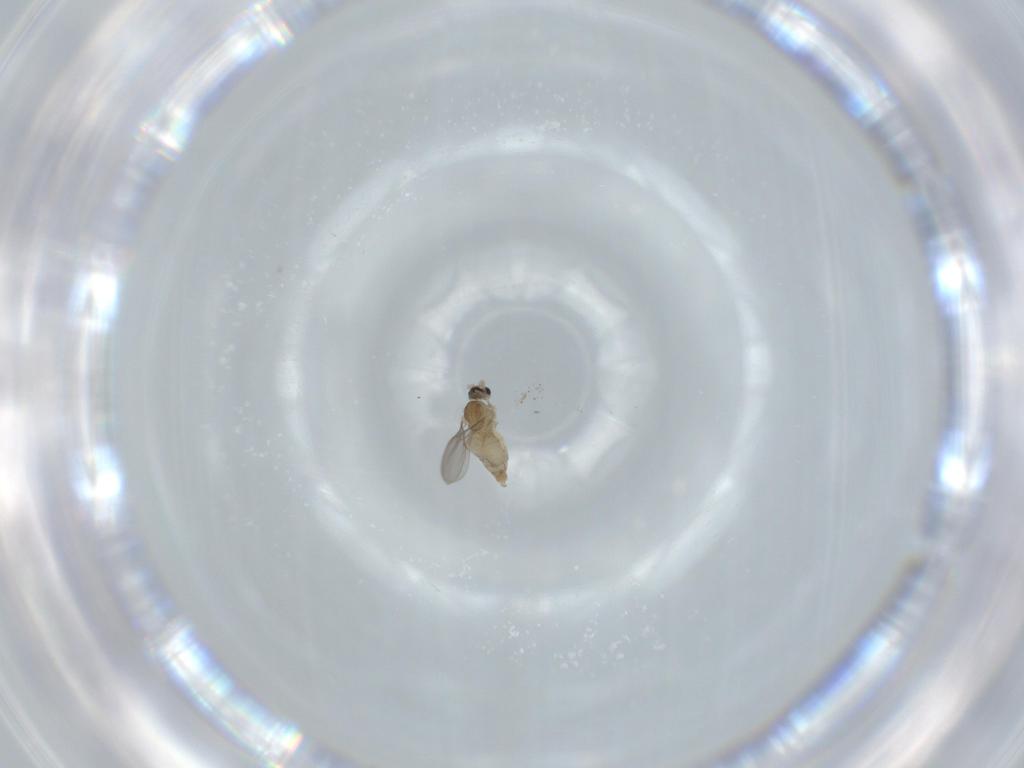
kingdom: Animalia
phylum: Arthropoda
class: Insecta
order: Diptera
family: Cecidomyiidae
